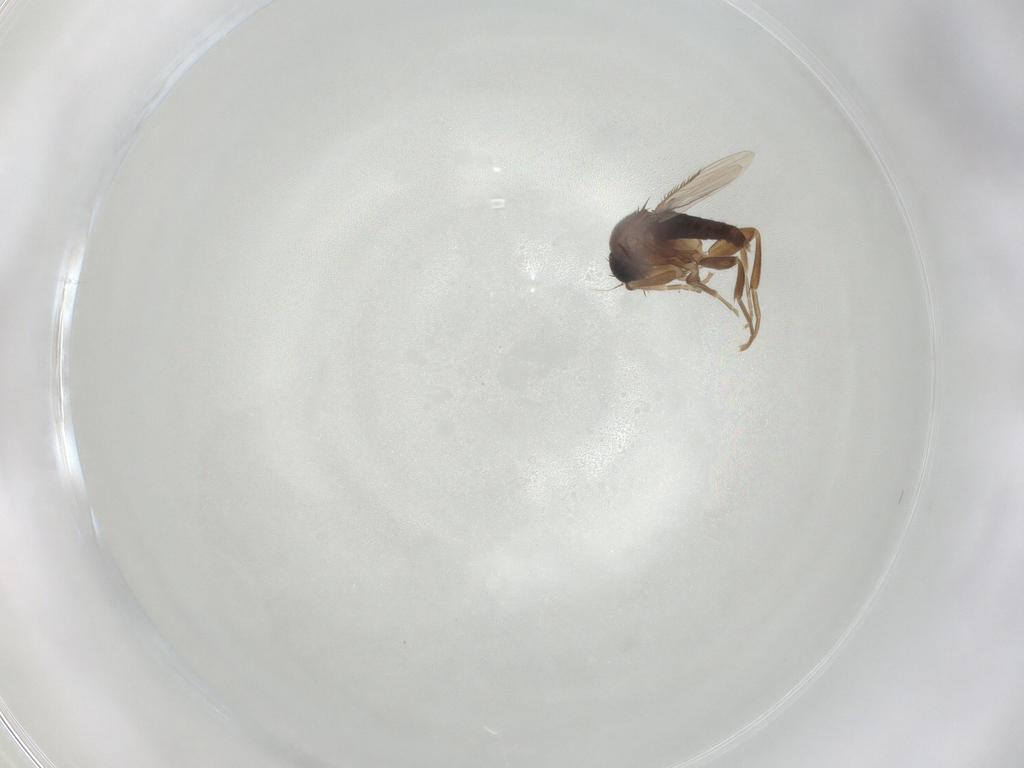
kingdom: Animalia
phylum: Arthropoda
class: Insecta
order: Diptera
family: Phoridae
